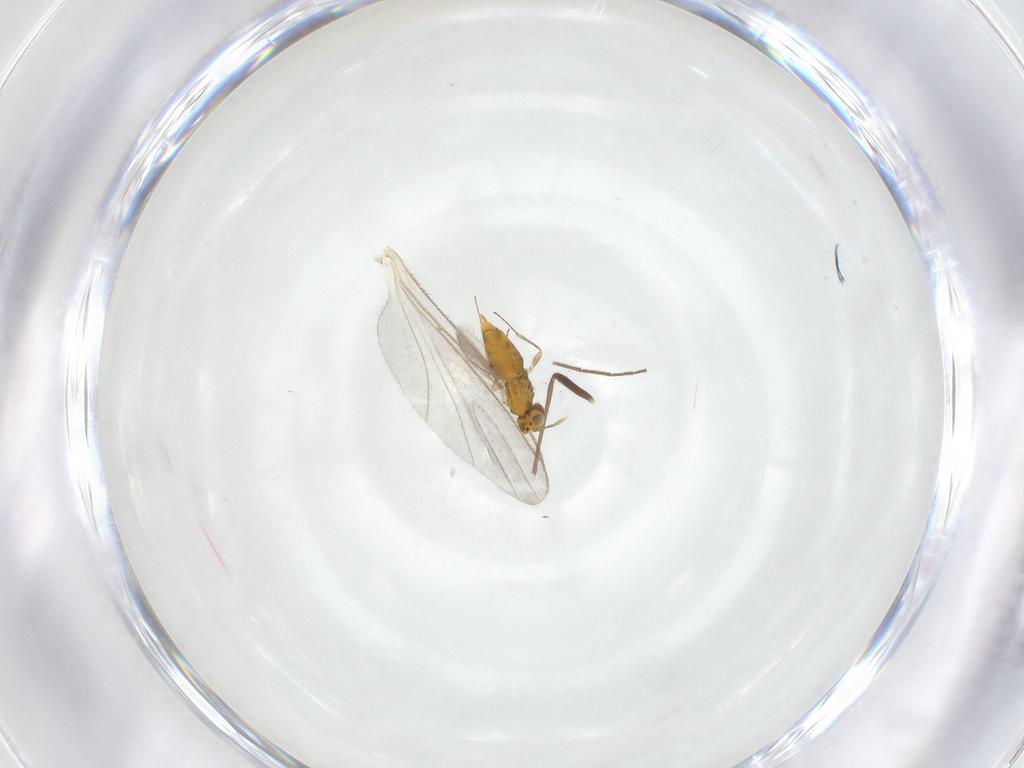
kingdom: Animalia
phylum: Arthropoda
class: Insecta
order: Hymenoptera
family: Aphelinidae
